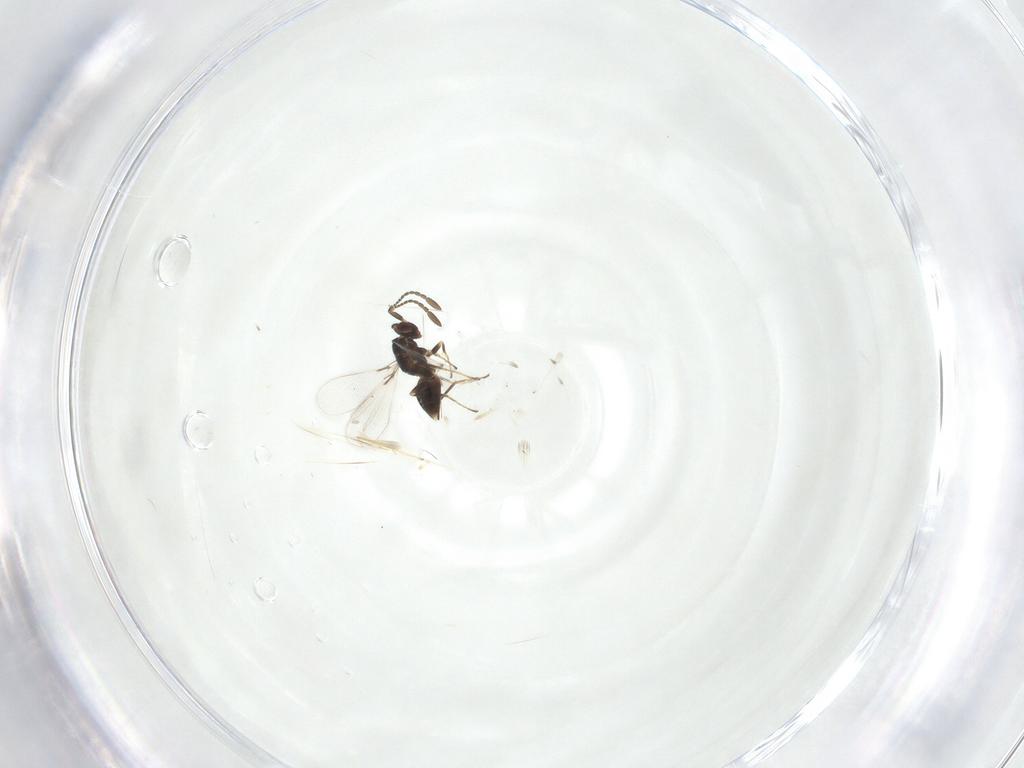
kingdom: Animalia
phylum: Arthropoda
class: Insecta
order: Hymenoptera
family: Mymaridae
